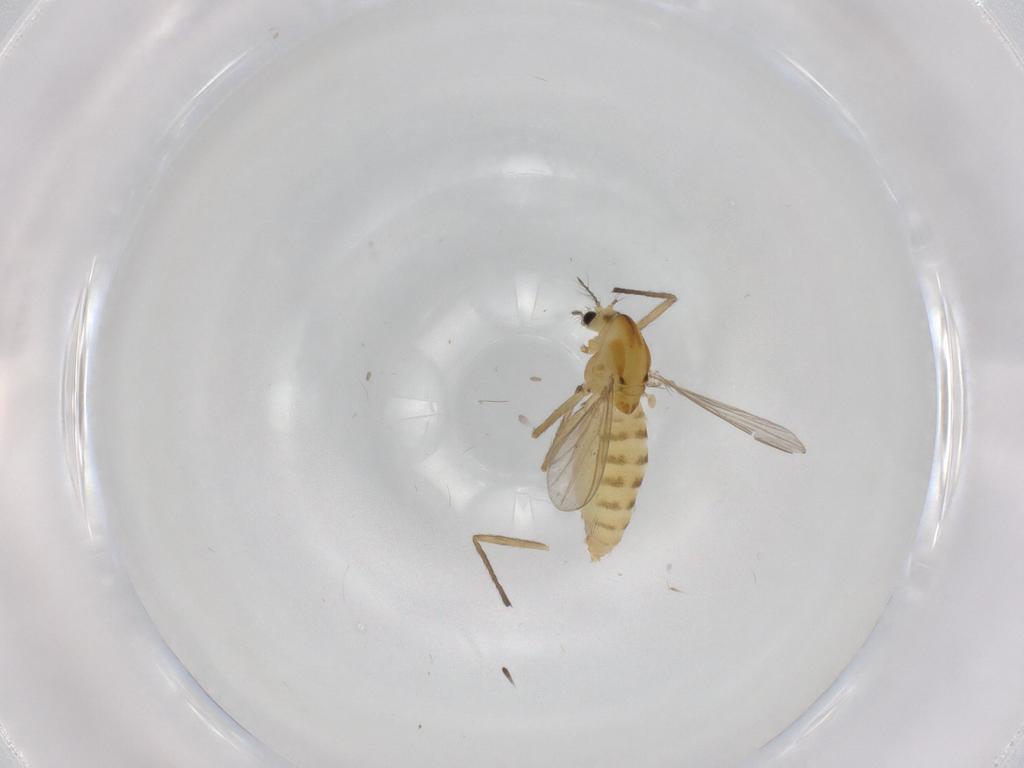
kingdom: Animalia
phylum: Arthropoda
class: Insecta
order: Diptera
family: Chironomidae
